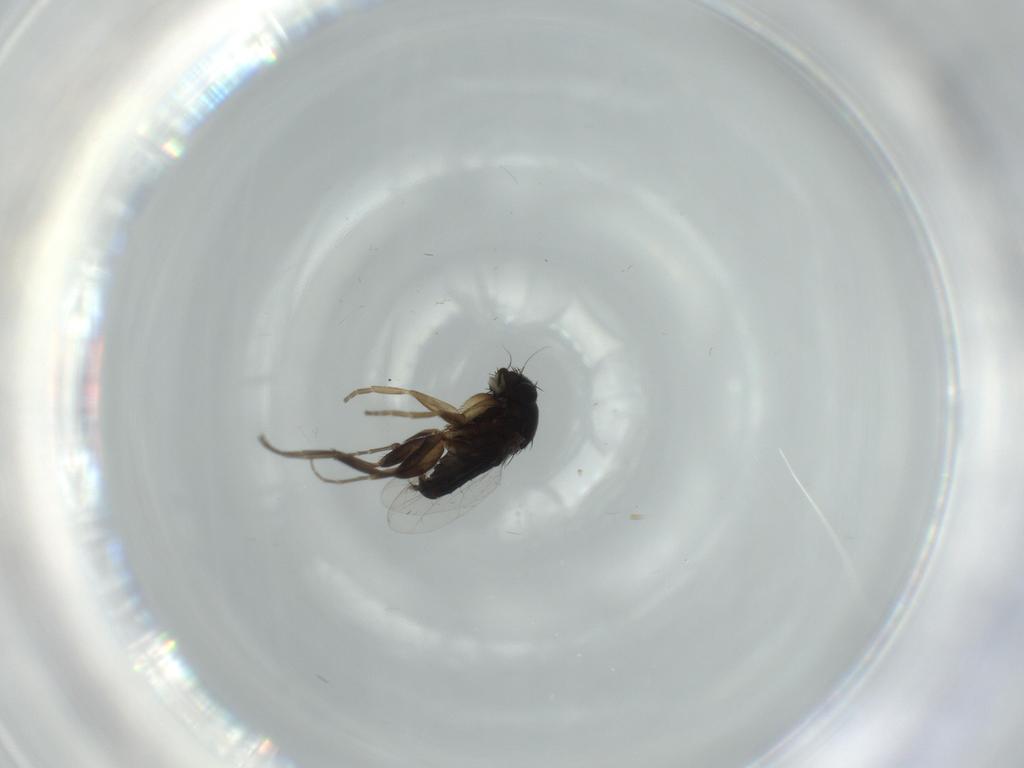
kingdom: Animalia
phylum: Arthropoda
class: Insecta
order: Diptera
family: Phoridae
